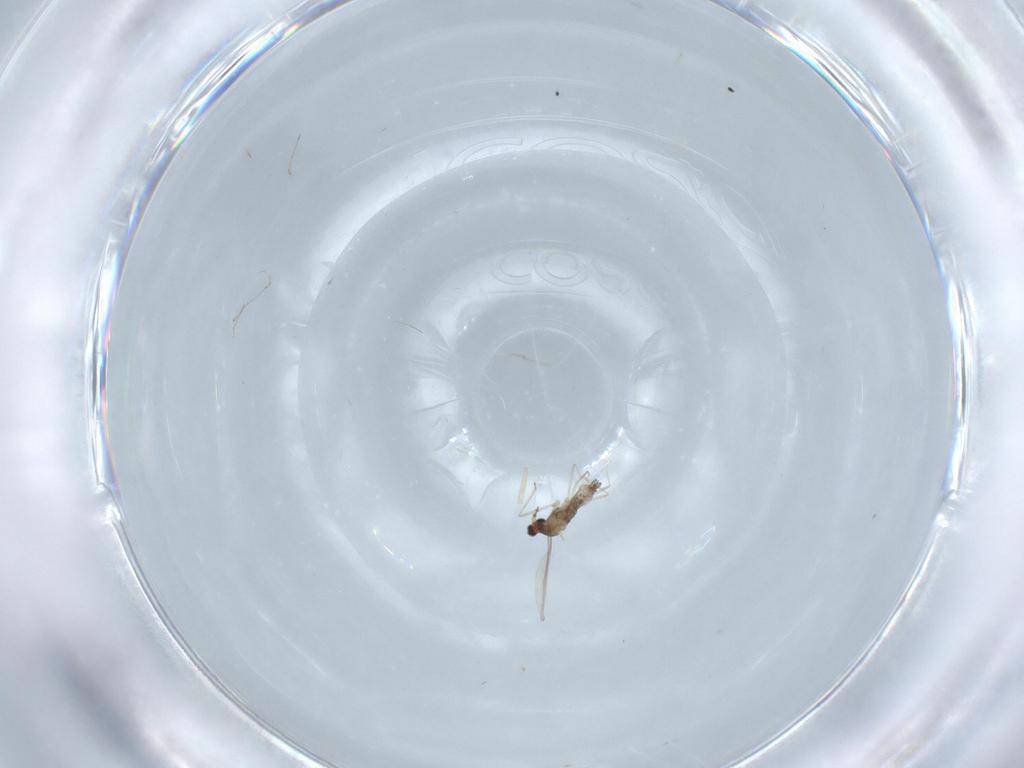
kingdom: Animalia
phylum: Arthropoda
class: Insecta
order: Diptera
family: Cecidomyiidae
